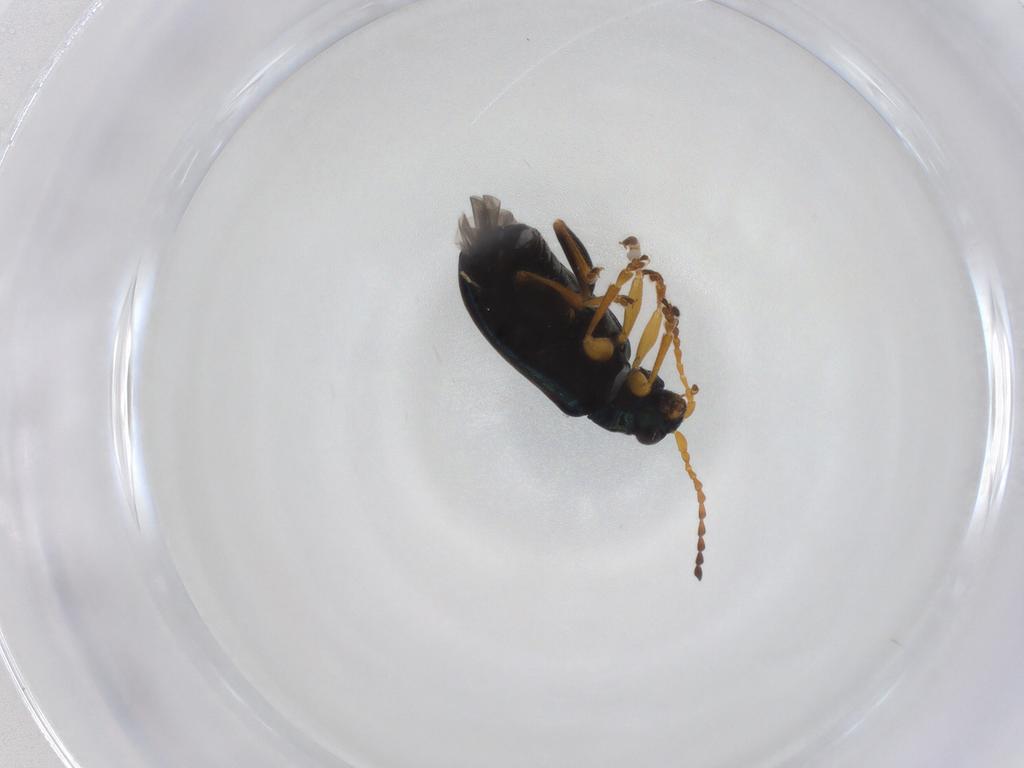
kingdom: Animalia
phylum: Arthropoda
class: Insecta
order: Coleoptera
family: Chrysomelidae
